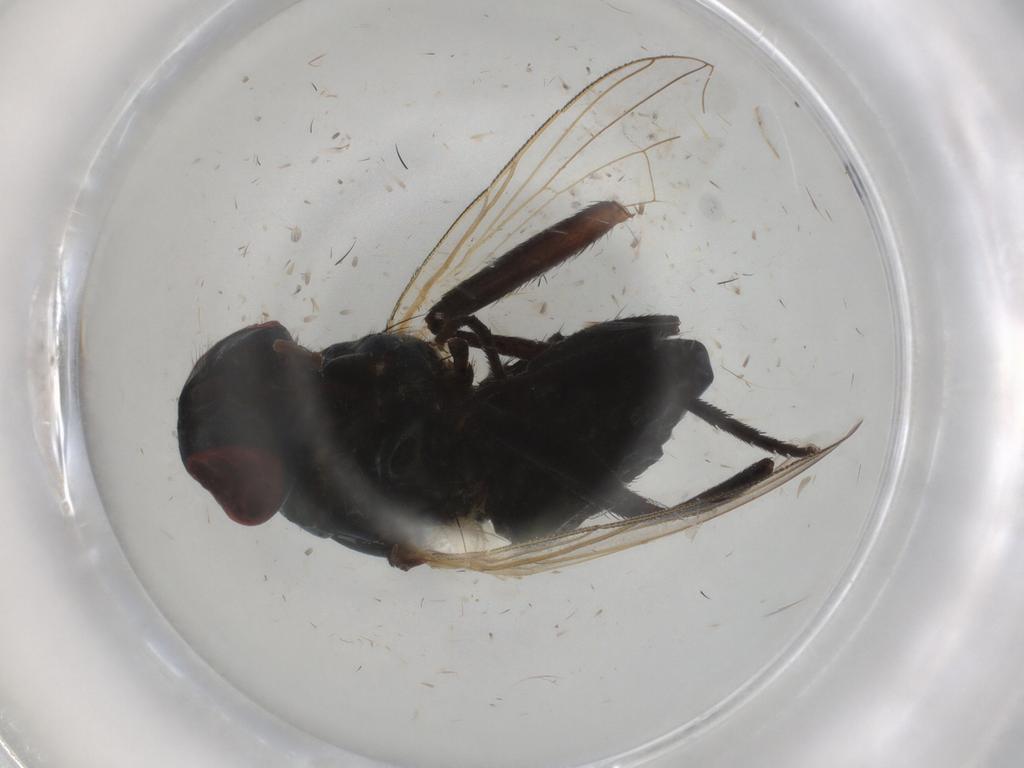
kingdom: Animalia
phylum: Arthropoda
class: Insecta
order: Diptera
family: Muscidae
